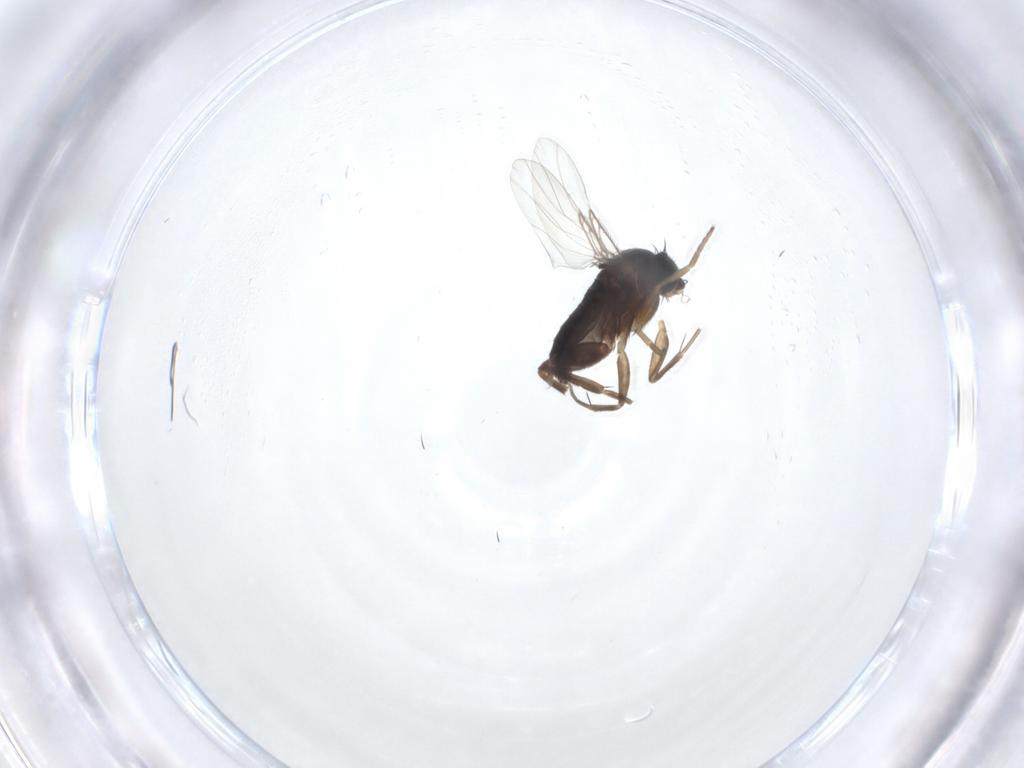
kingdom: Animalia
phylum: Arthropoda
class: Insecta
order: Diptera
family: Phoridae
